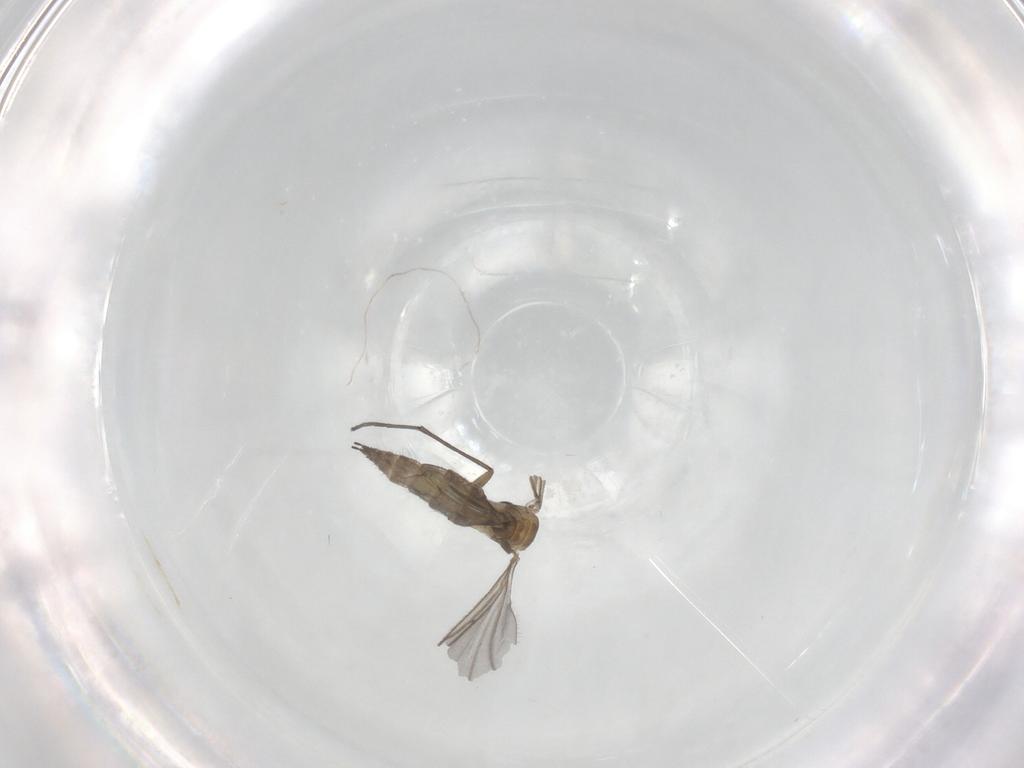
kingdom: Animalia
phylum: Arthropoda
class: Insecta
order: Diptera
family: Sciaridae
